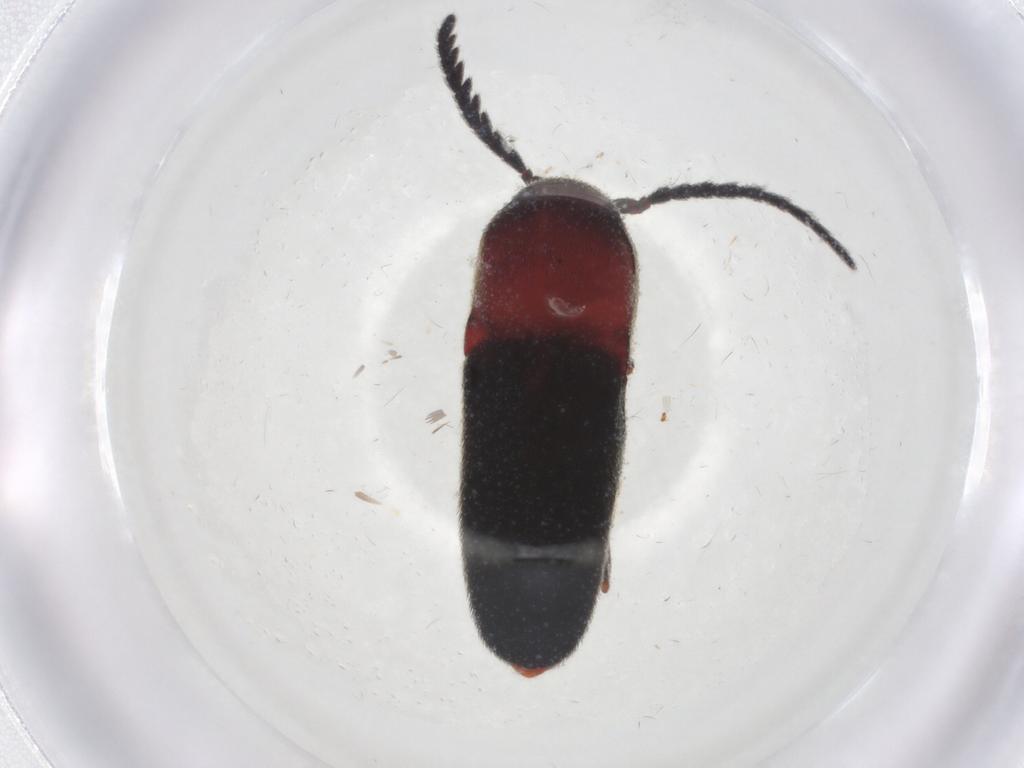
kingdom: Animalia
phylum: Arthropoda
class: Insecta
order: Coleoptera
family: Eucnemidae
